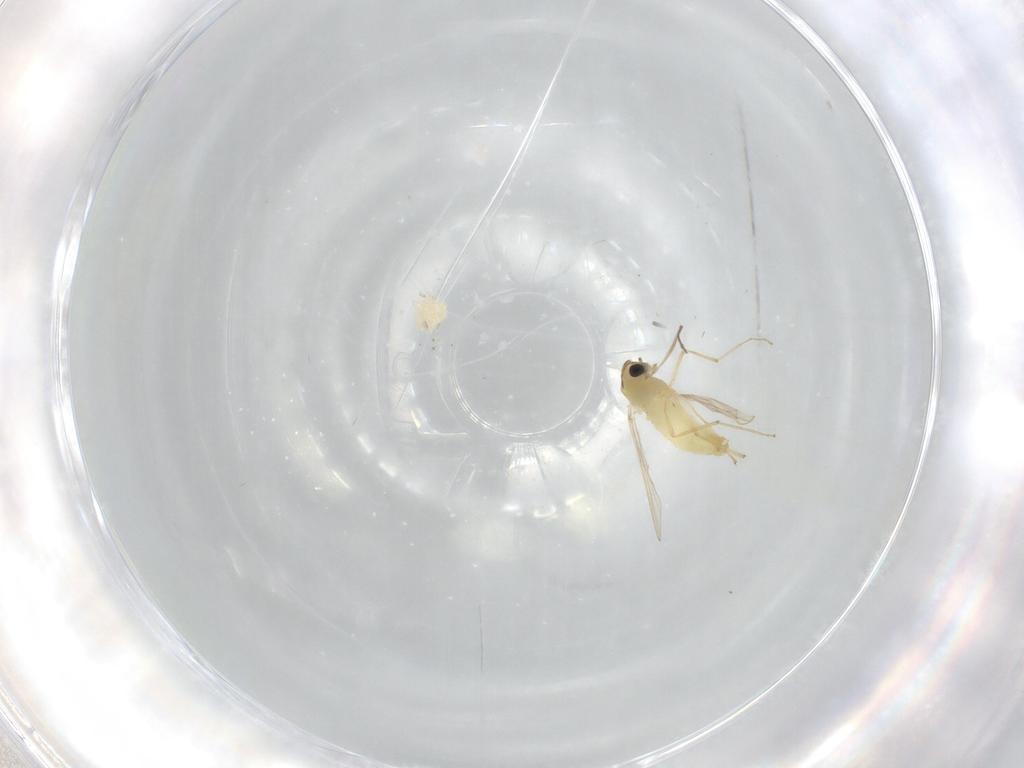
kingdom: Animalia
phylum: Arthropoda
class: Insecta
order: Diptera
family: Chironomidae
